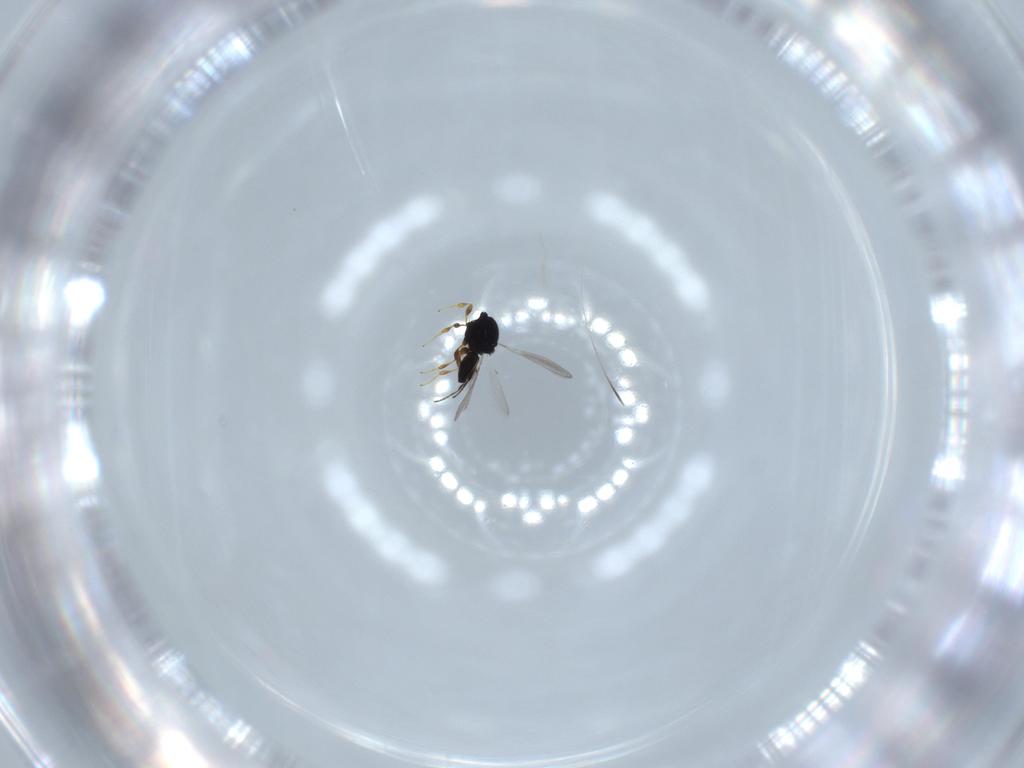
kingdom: Animalia
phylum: Arthropoda
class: Insecta
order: Hymenoptera
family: Platygastridae
